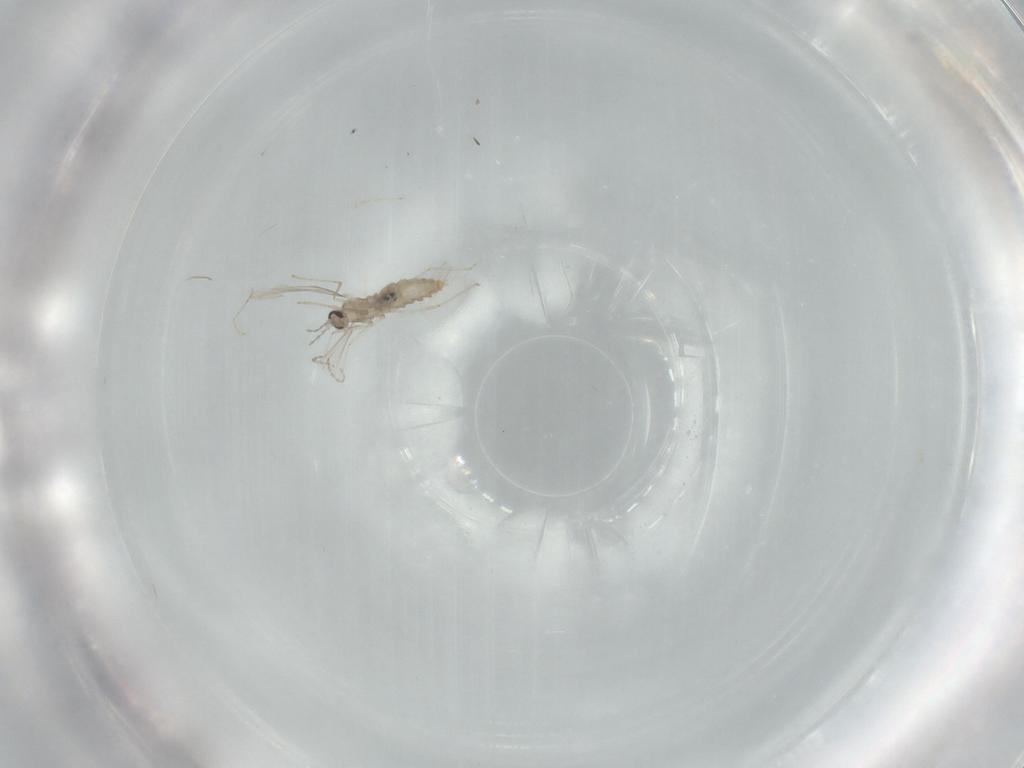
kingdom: Animalia
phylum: Arthropoda
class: Insecta
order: Diptera
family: Cecidomyiidae
